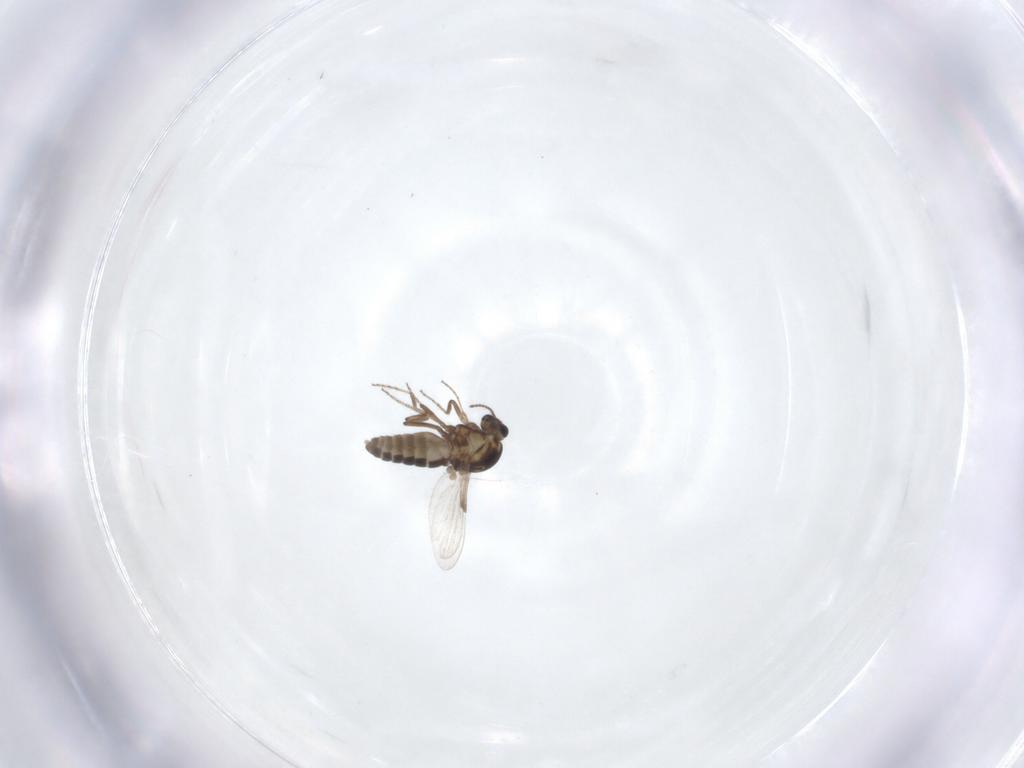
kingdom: Animalia
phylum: Arthropoda
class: Insecta
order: Diptera
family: Ceratopogonidae
